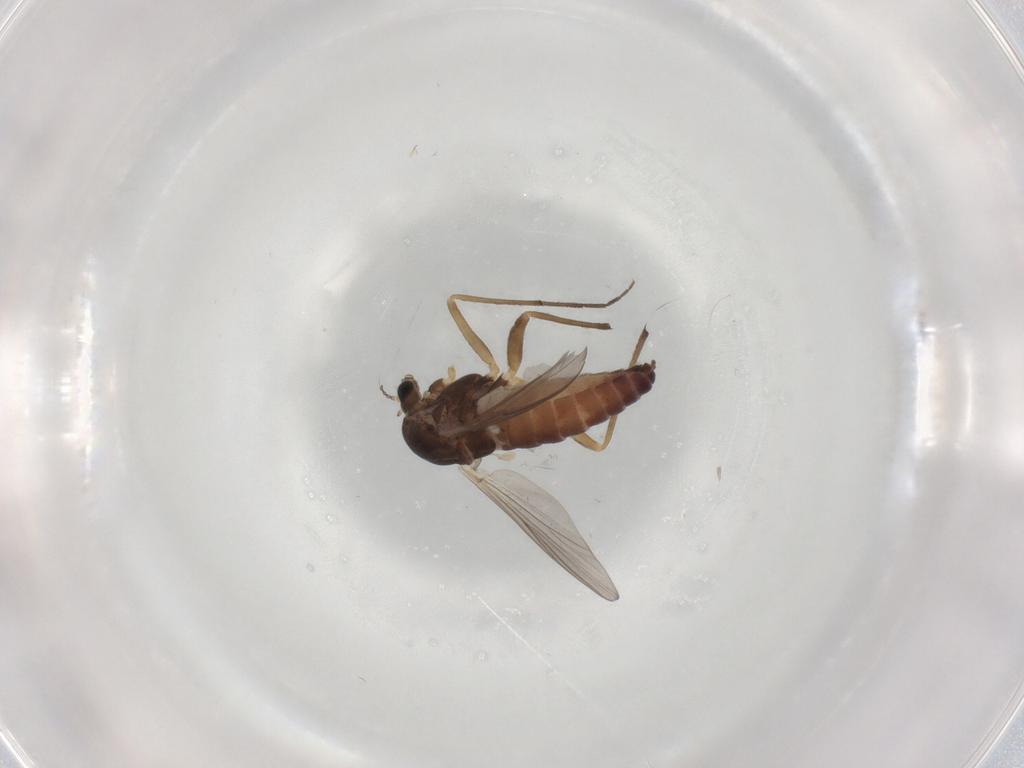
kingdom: Animalia
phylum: Arthropoda
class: Insecta
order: Diptera
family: Chironomidae
